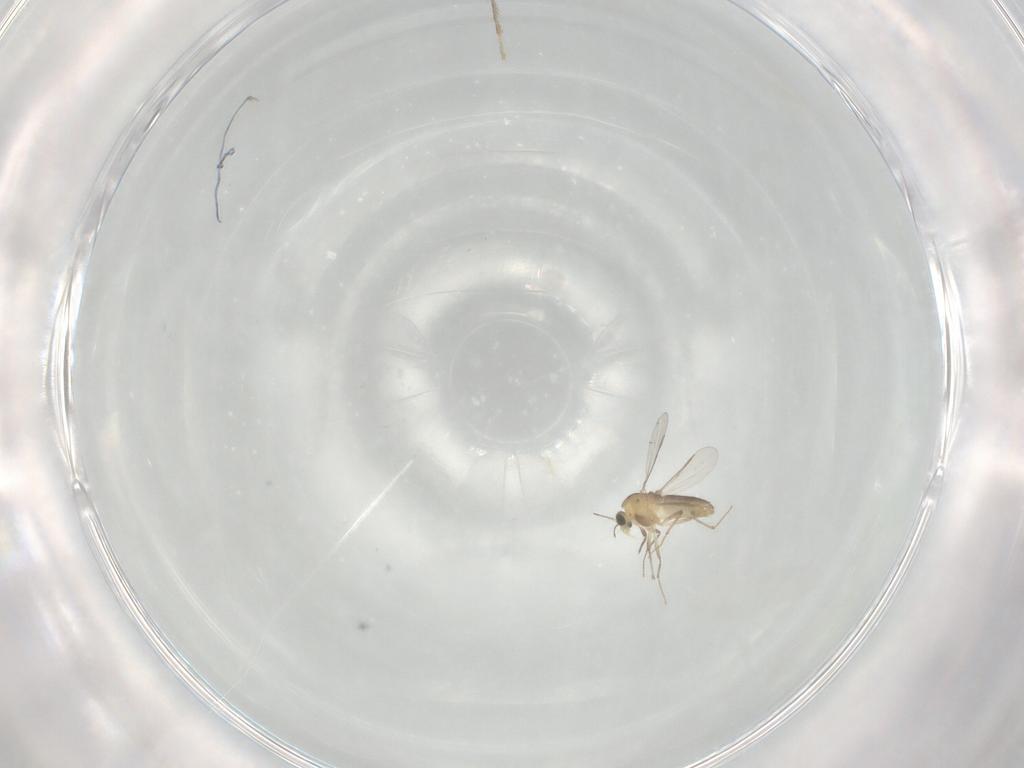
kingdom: Animalia
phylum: Arthropoda
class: Insecta
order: Diptera
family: Chironomidae
